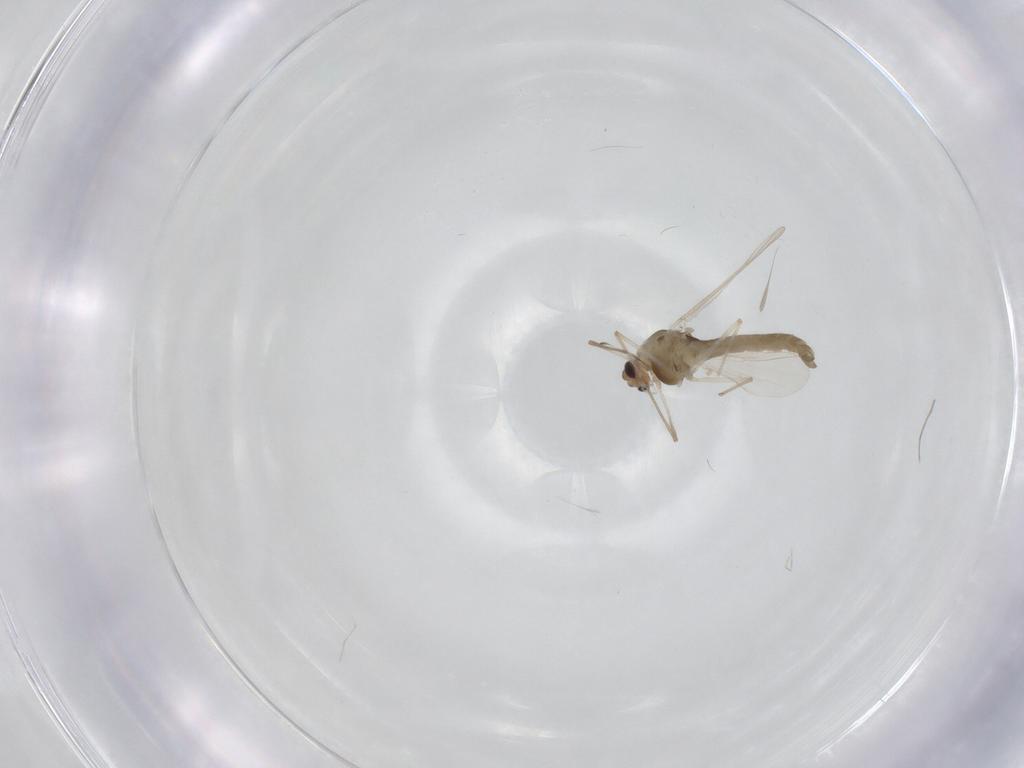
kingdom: Animalia
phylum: Arthropoda
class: Insecta
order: Diptera
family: Chironomidae
